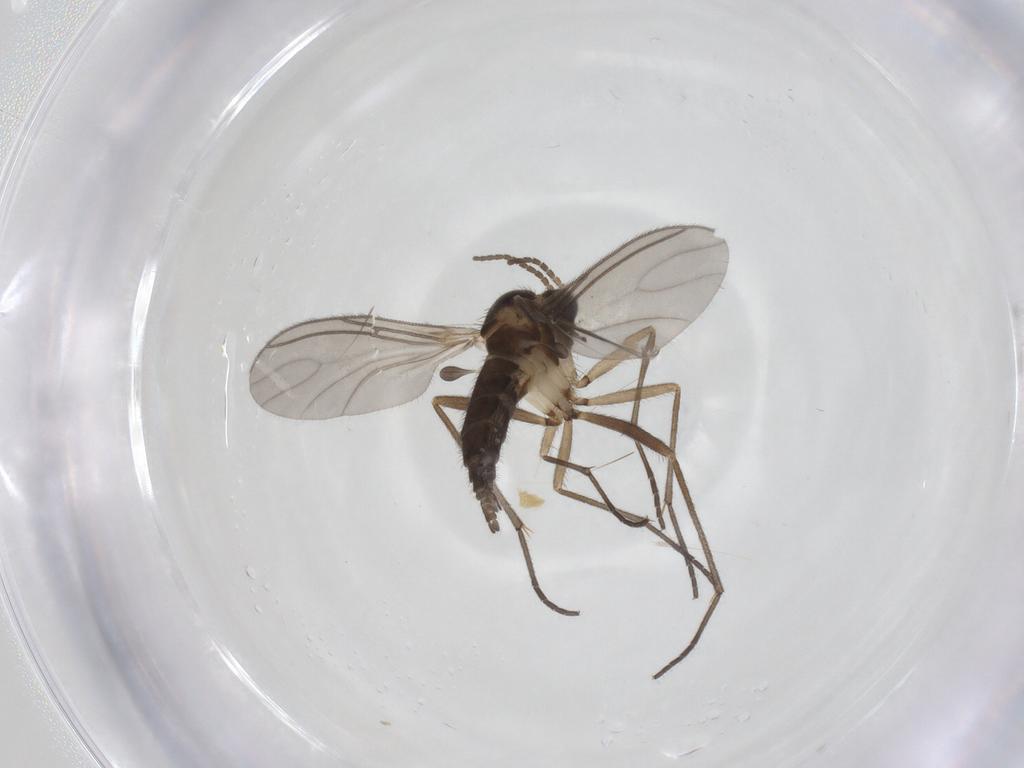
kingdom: Animalia
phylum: Arthropoda
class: Insecta
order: Diptera
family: Sciaridae
